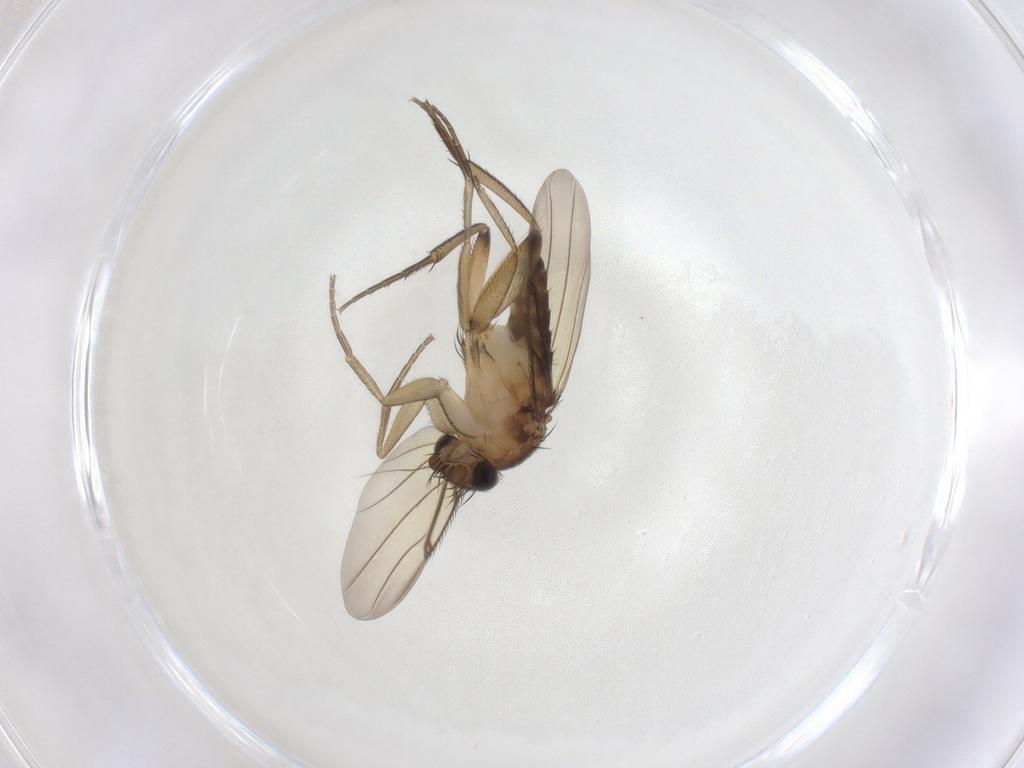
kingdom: Animalia
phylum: Arthropoda
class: Insecta
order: Diptera
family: Phoridae
